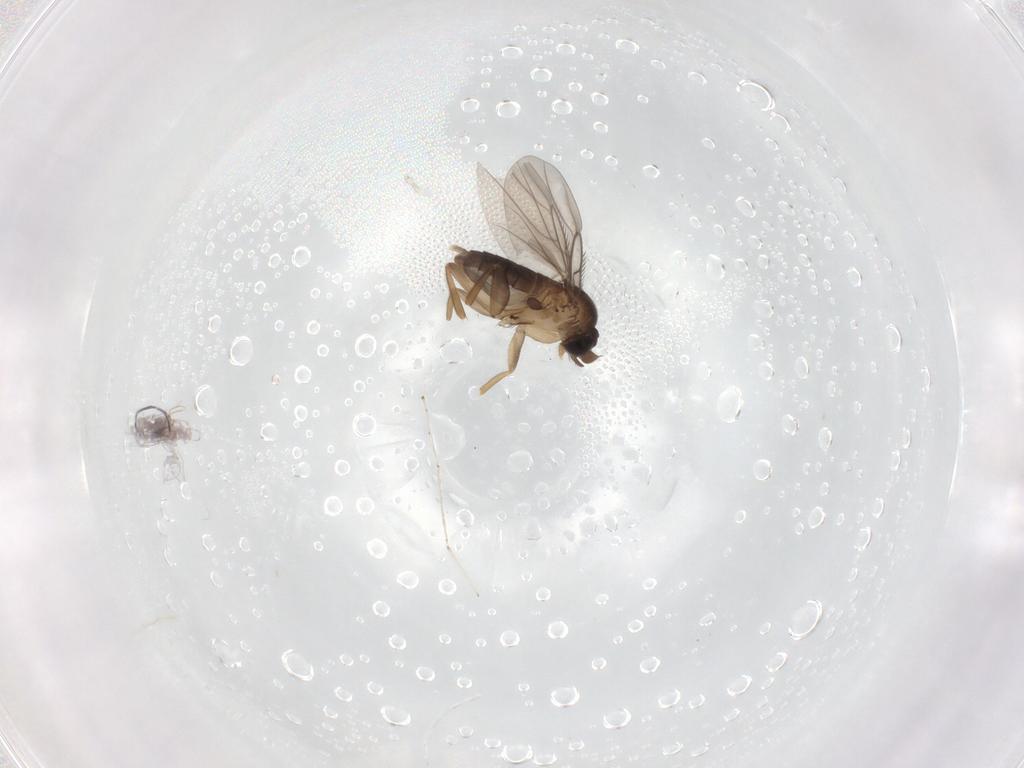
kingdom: Animalia
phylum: Arthropoda
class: Insecta
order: Diptera
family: Phoridae
